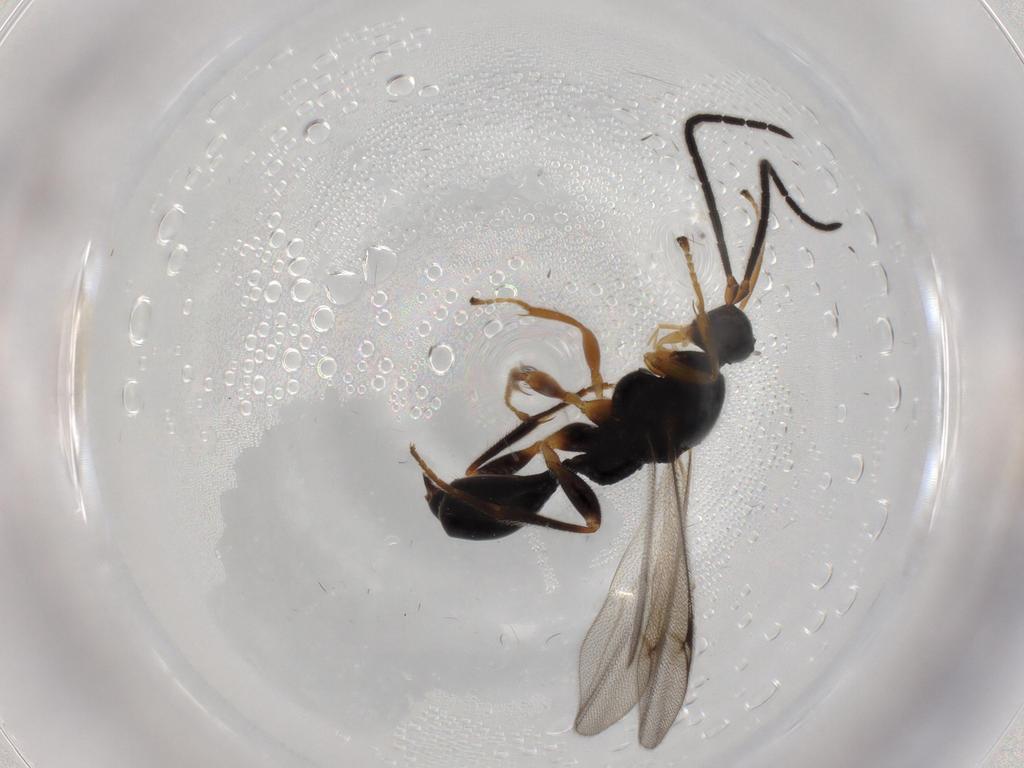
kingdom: Animalia
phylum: Arthropoda
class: Insecta
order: Hymenoptera
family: Proctotrupidae
